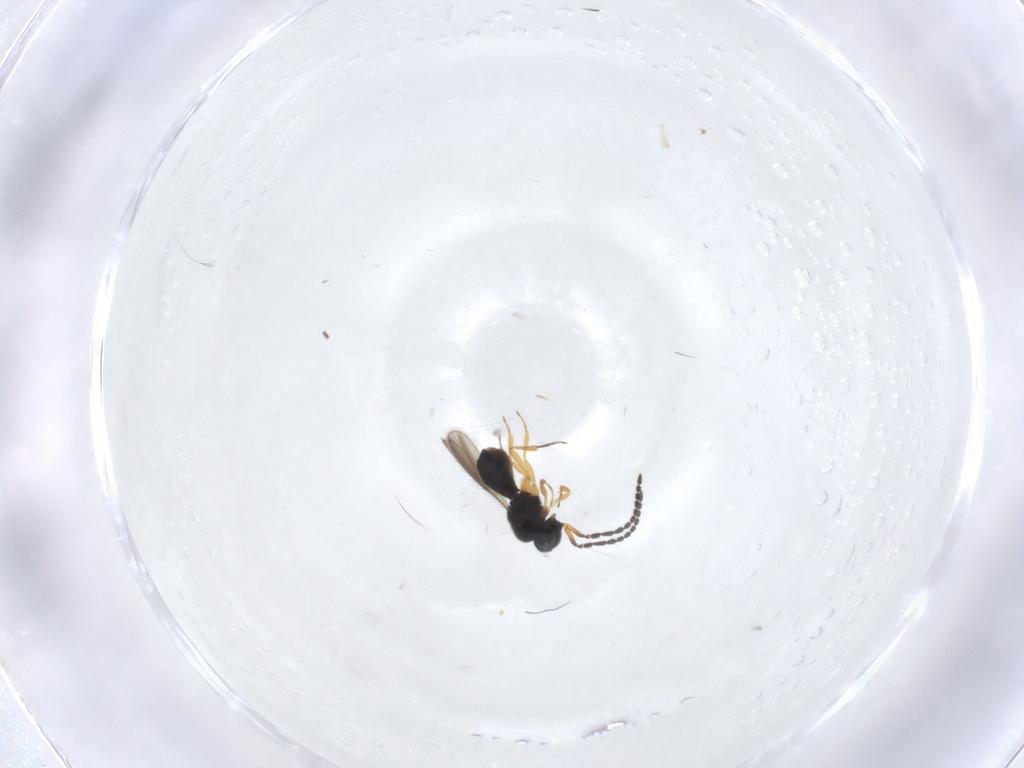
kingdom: Animalia
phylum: Arthropoda
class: Insecta
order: Hymenoptera
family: Scelionidae
